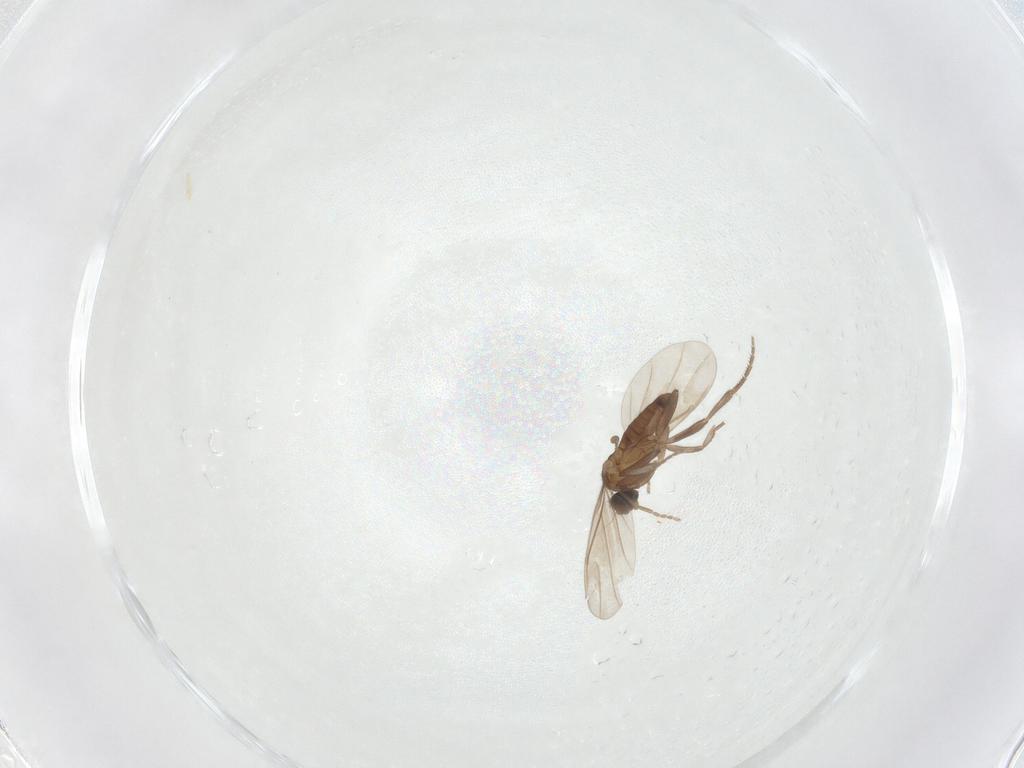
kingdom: Animalia
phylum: Arthropoda
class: Insecta
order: Diptera
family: Phoridae
